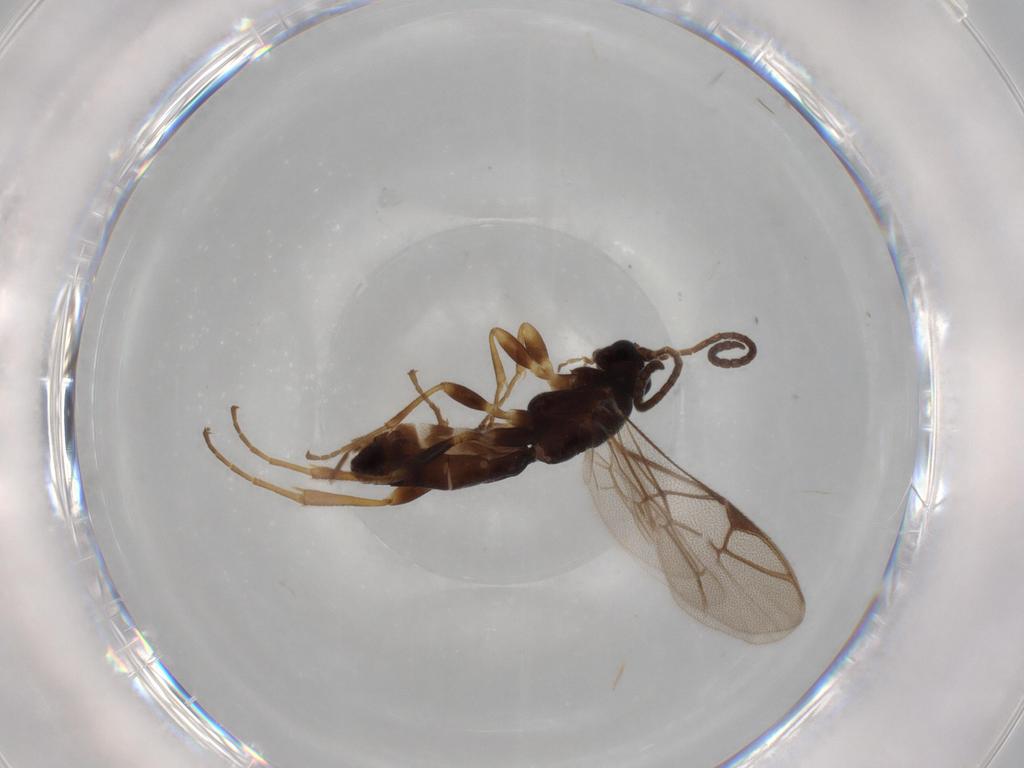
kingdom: Animalia
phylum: Arthropoda
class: Insecta
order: Hymenoptera
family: Ichneumonidae
